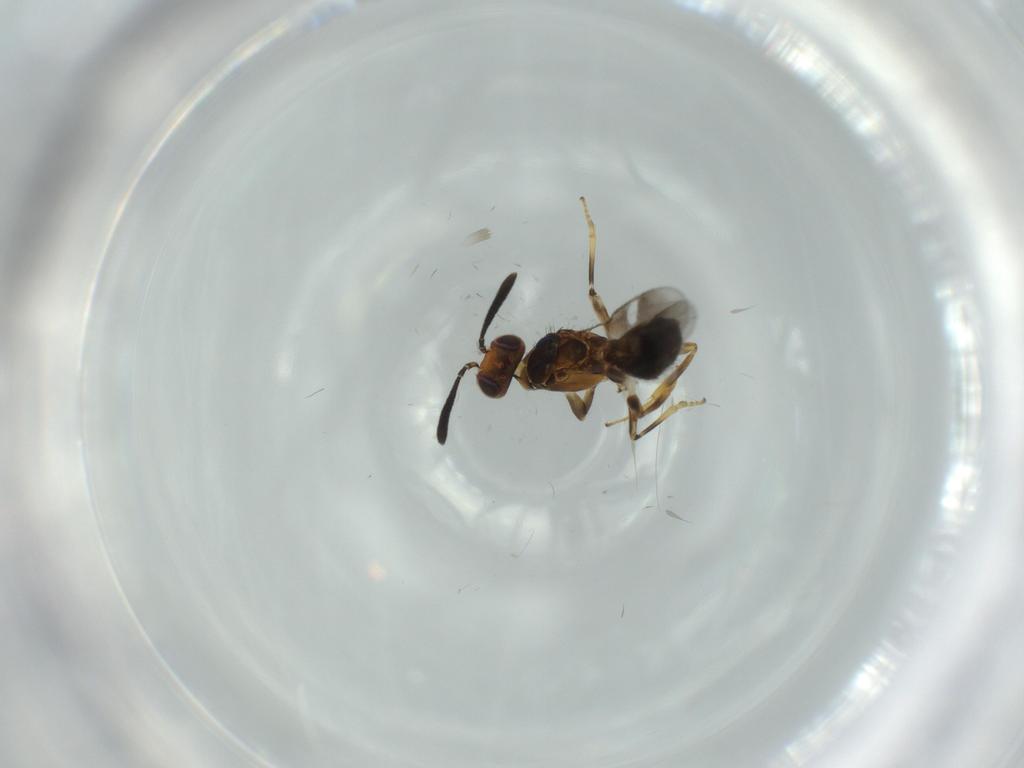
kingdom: Animalia
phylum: Arthropoda
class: Insecta
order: Hymenoptera
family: Eupelmidae
